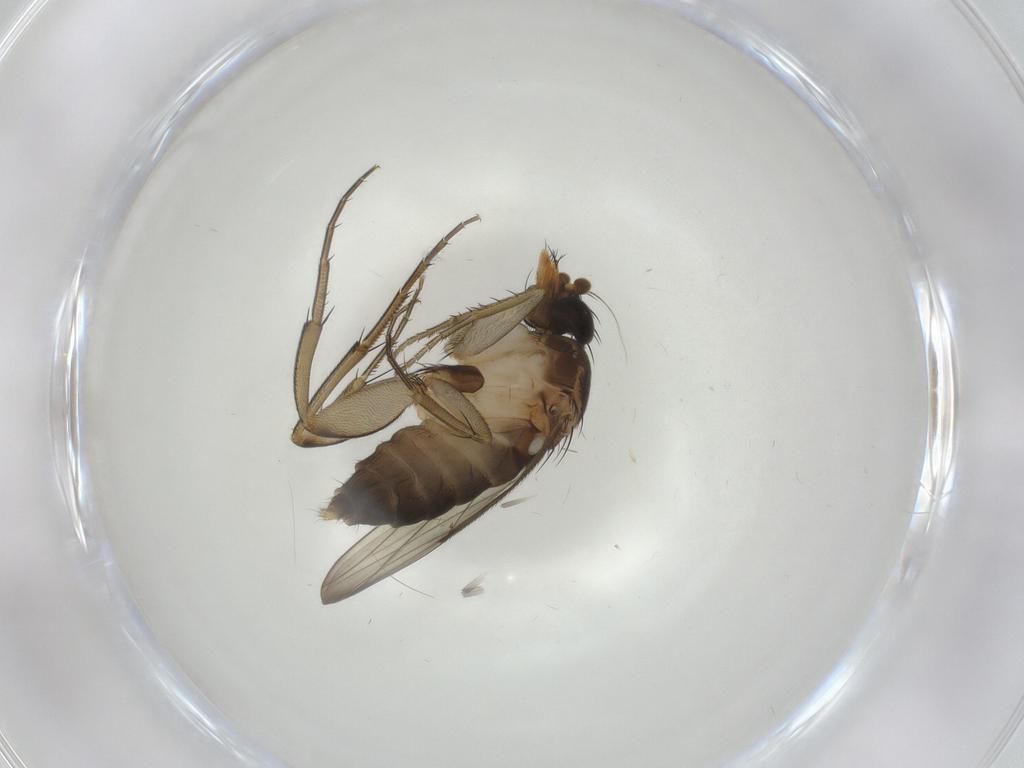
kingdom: Animalia
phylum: Arthropoda
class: Insecta
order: Diptera
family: Chironomidae
